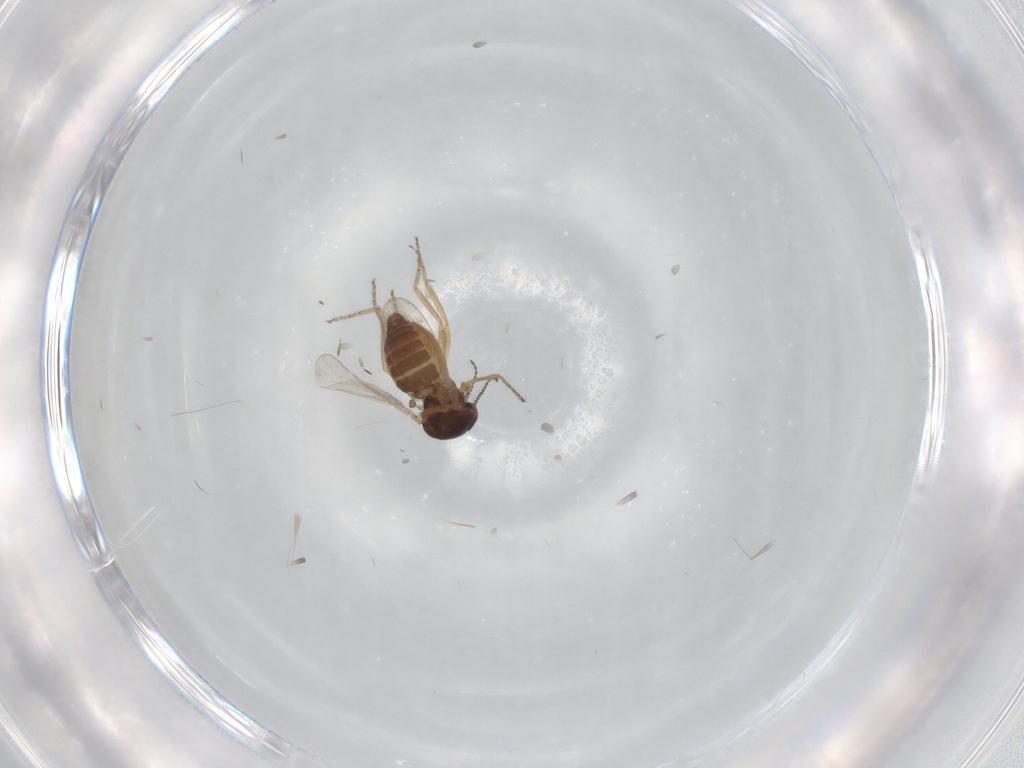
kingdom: Animalia
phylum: Arthropoda
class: Insecta
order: Diptera
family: Ceratopogonidae
